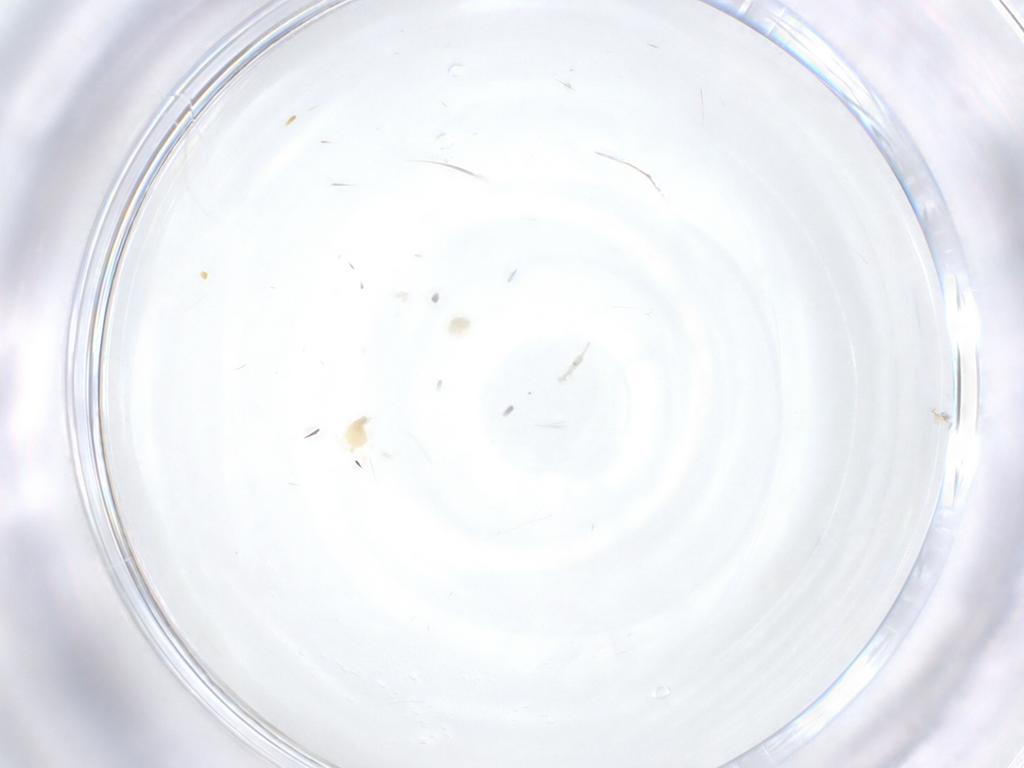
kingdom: Animalia
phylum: Arthropoda
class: Arachnida
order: Trombidiformes
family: Tetranychidae
